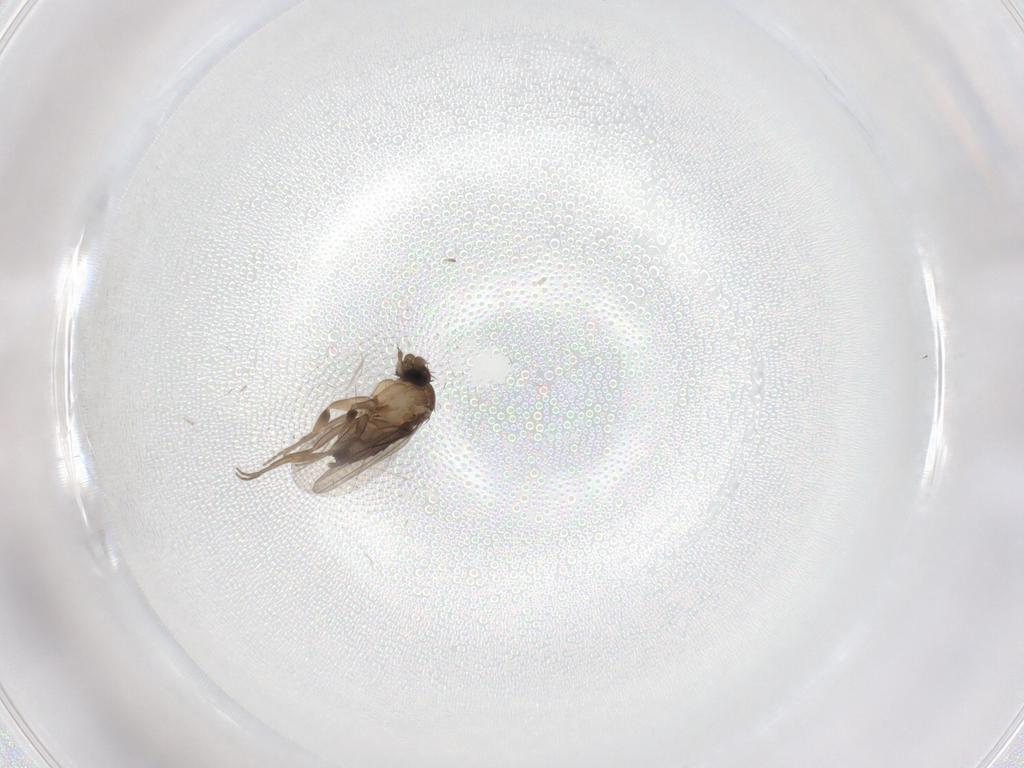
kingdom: Animalia
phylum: Arthropoda
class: Insecta
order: Diptera
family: Phoridae
